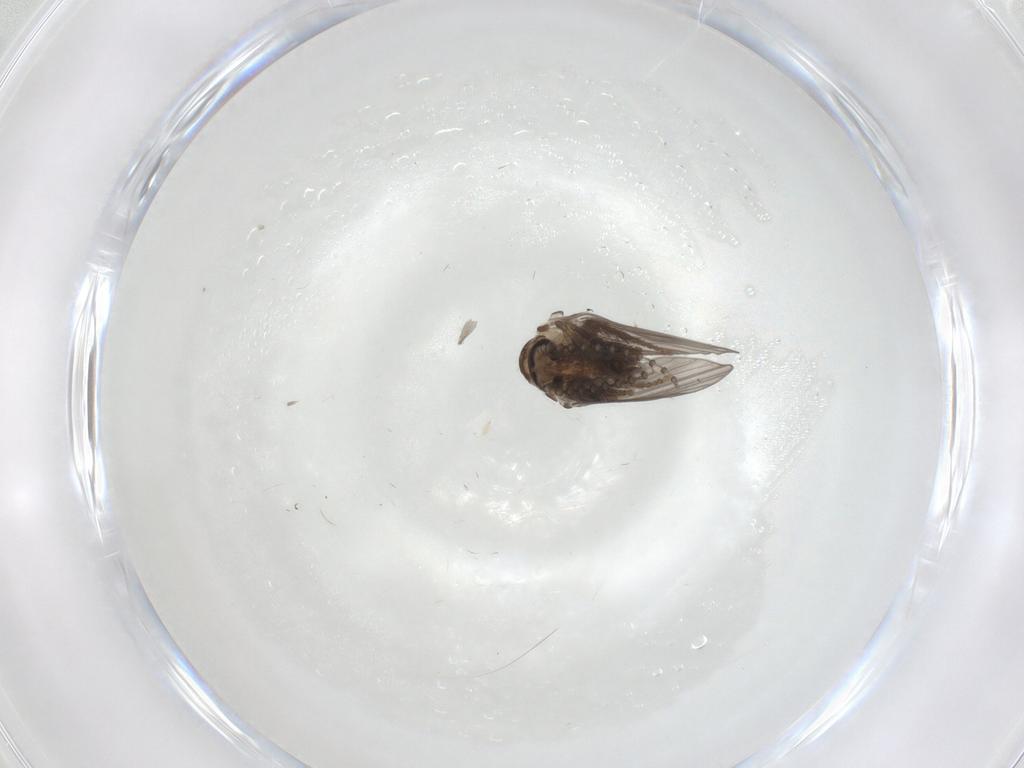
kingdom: Animalia
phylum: Arthropoda
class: Insecta
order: Diptera
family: Psychodidae
